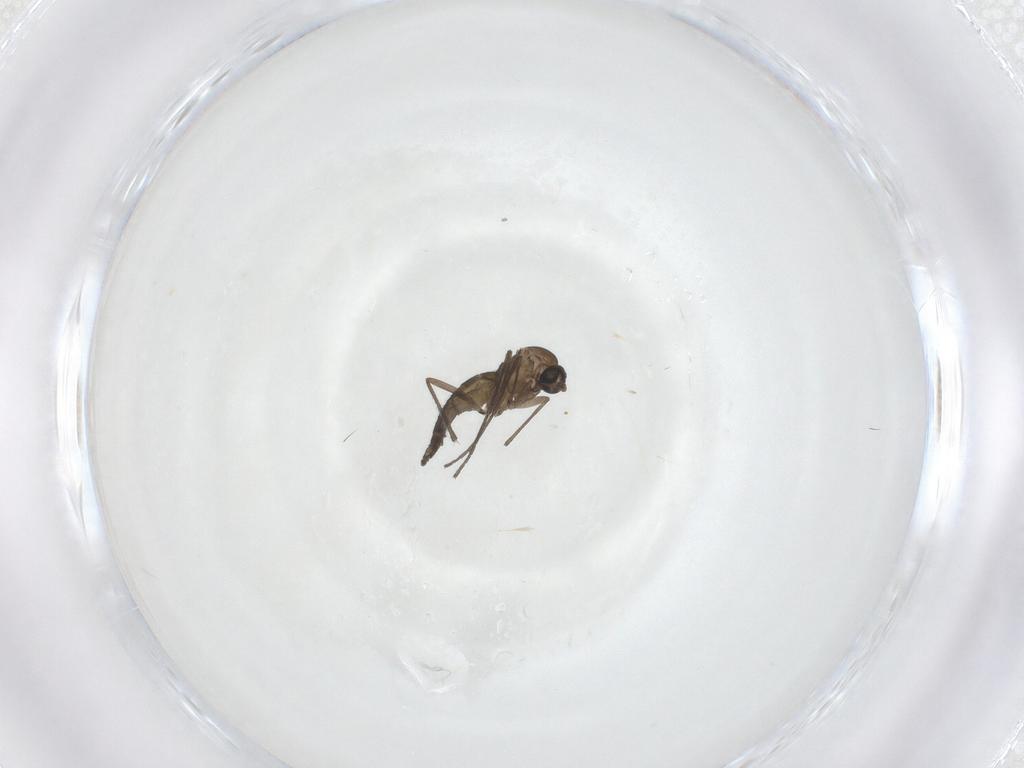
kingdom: Animalia
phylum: Arthropoda
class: Insecta
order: Diptera
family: Sciaridae
